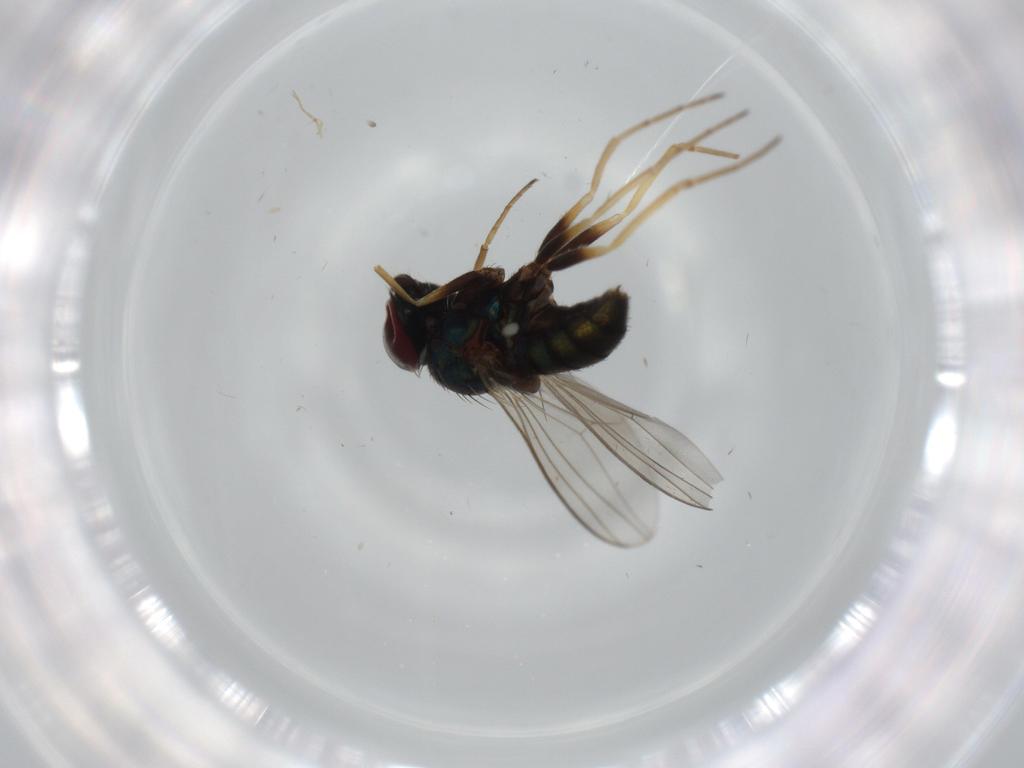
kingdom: Animalia
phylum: Arthropoda
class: Insecta
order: Diptera
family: Dolichopodidae
